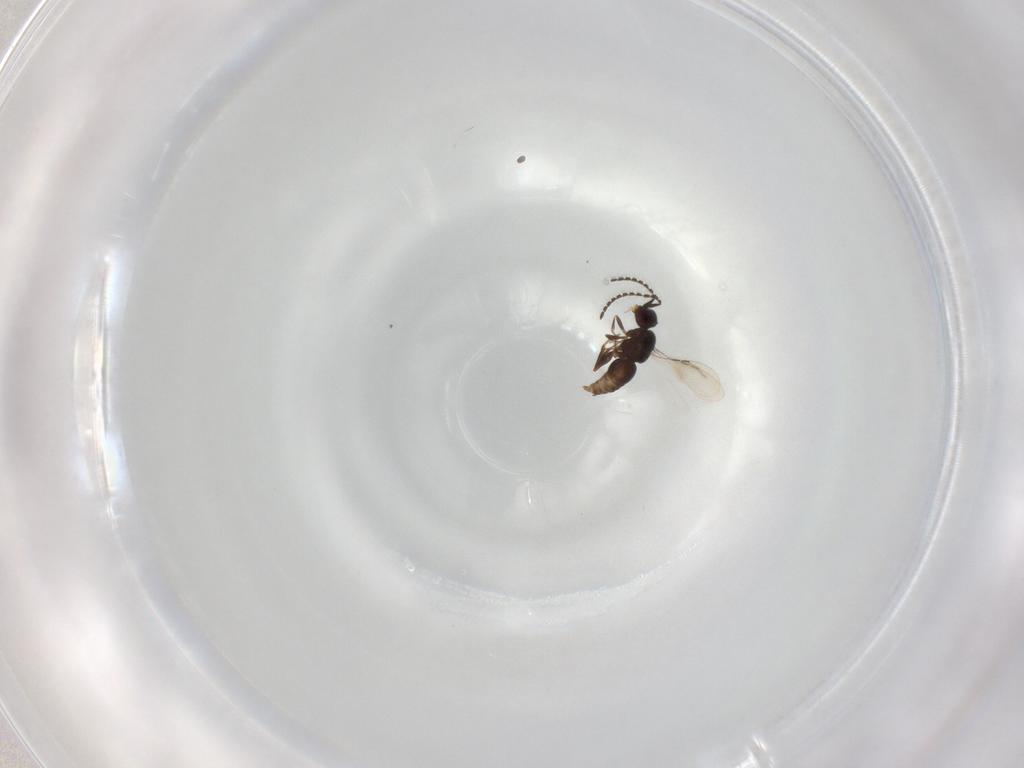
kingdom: Animalia
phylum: Arthropoda
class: Insecta
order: Hymenoptera
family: Ceraphronidae
